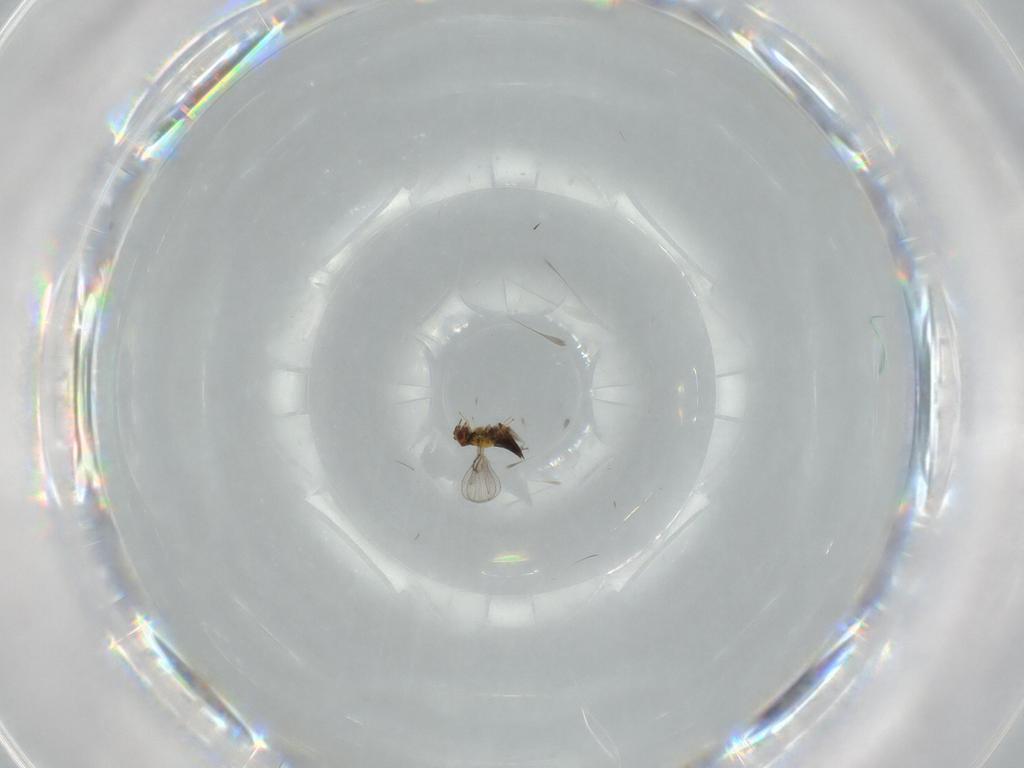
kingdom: Animalia
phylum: Arthropoda
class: Insecta
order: Hymenoptera
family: Trichogrammatidae
